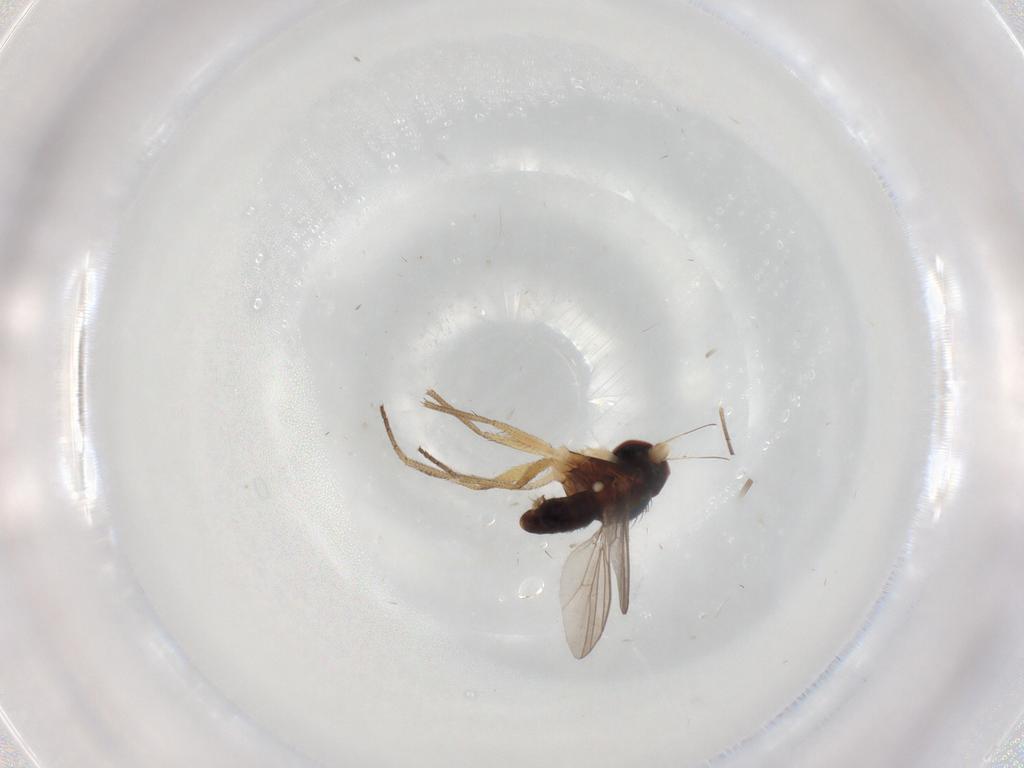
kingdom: Animalia
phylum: Arthropoda
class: Insecta
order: Diptera
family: Dolichopodidae
